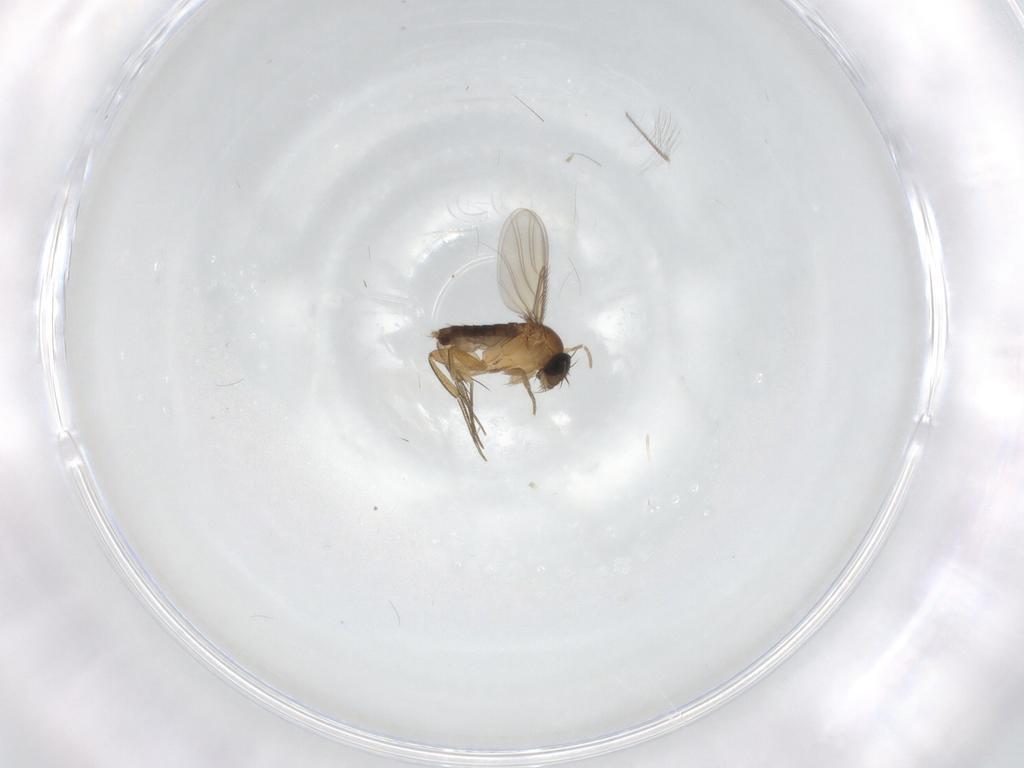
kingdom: Animalia
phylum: Arthropoda
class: Insecta
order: Diptera
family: Phoridae
